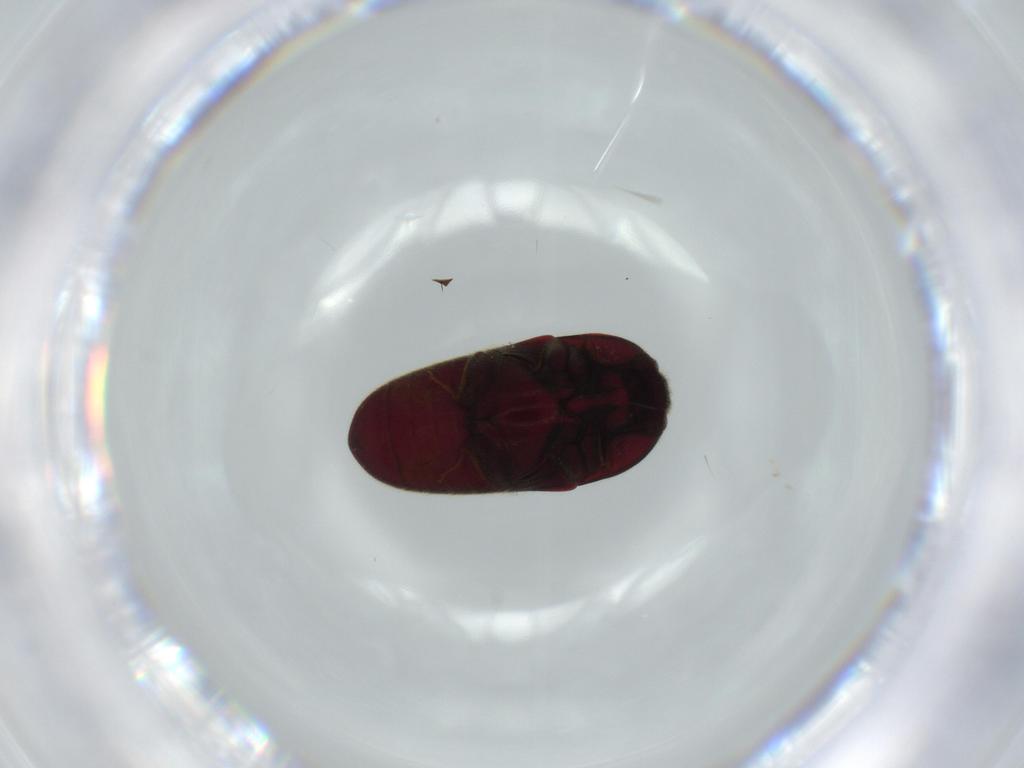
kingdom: Animalia
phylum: Arthropoda
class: Insecta
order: Coleoptera
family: Throscidae
